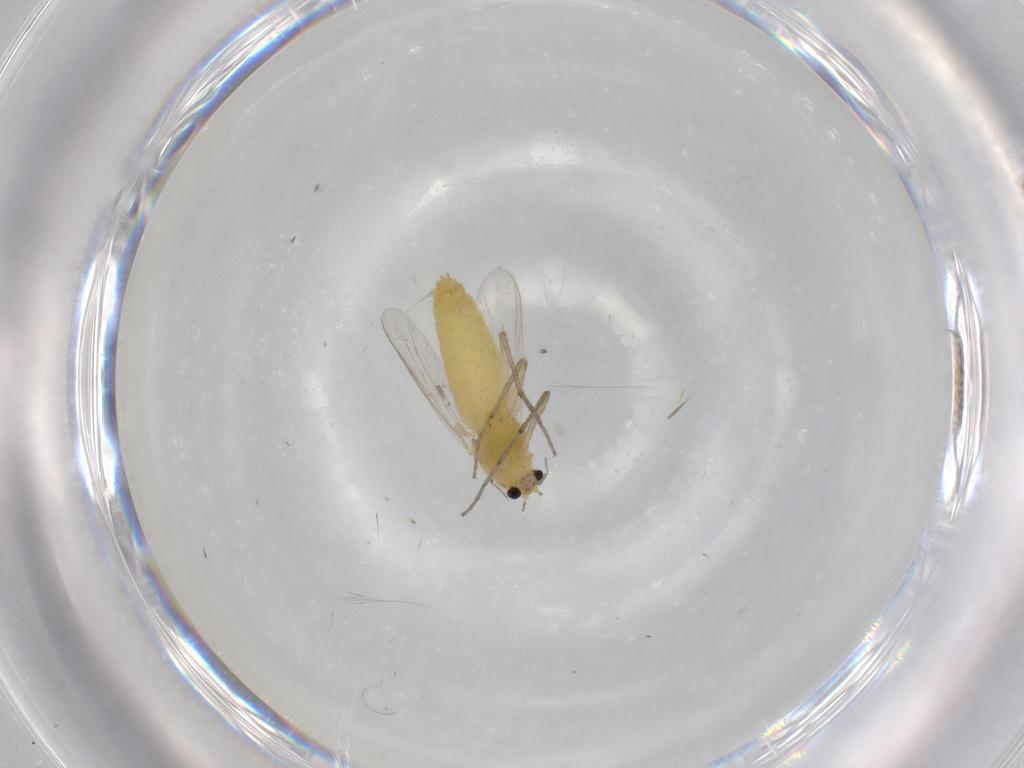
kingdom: Animalia
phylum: Arthropoda
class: Insecta
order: Diptera
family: Chironomidae
